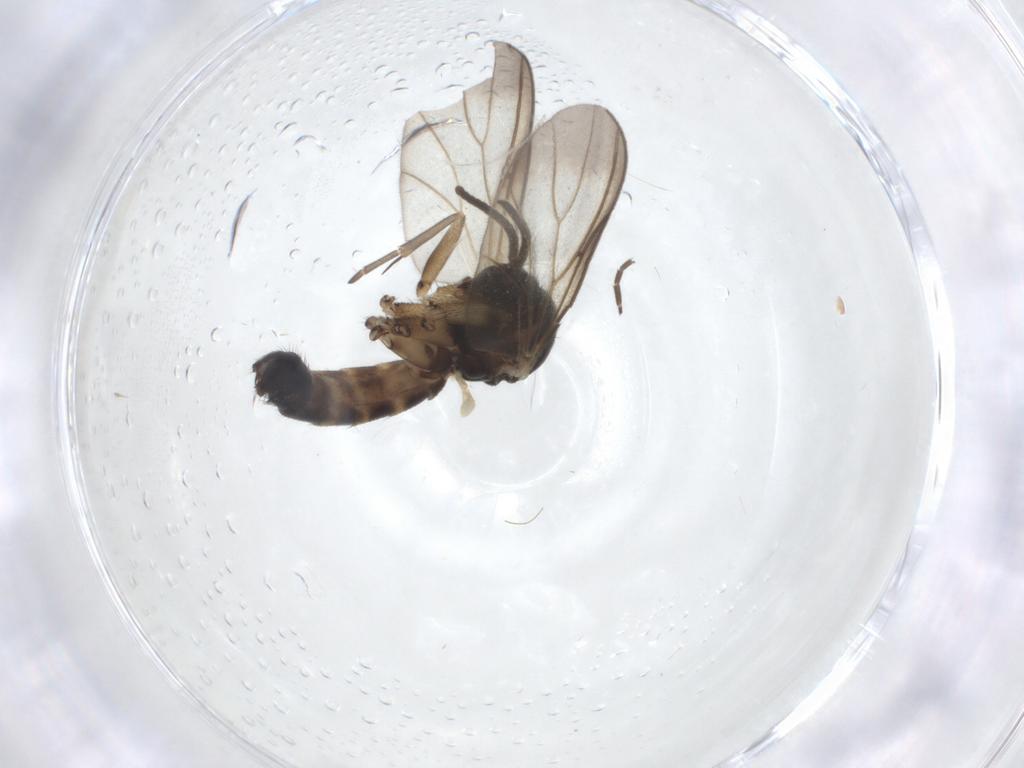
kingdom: Animalia
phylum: Arthropoda
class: Insecta
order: Diptera
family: Mycetophilidae
